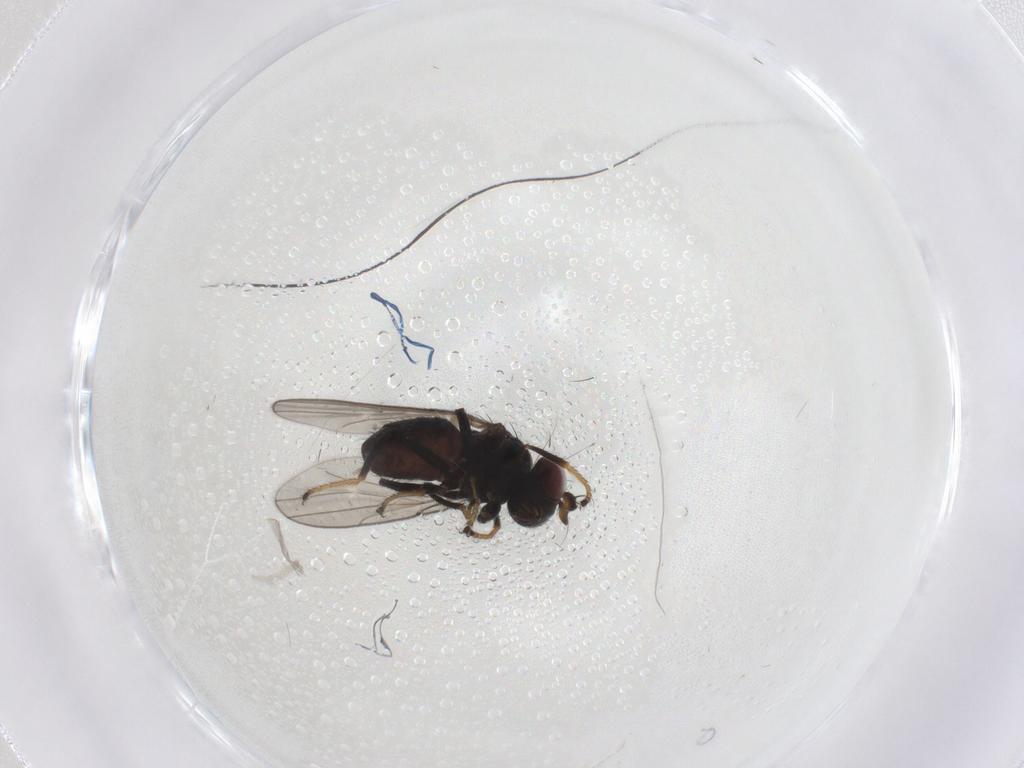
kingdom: Animalia
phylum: Arthropoda
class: Insecta
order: Diptera
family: Ephydridae
